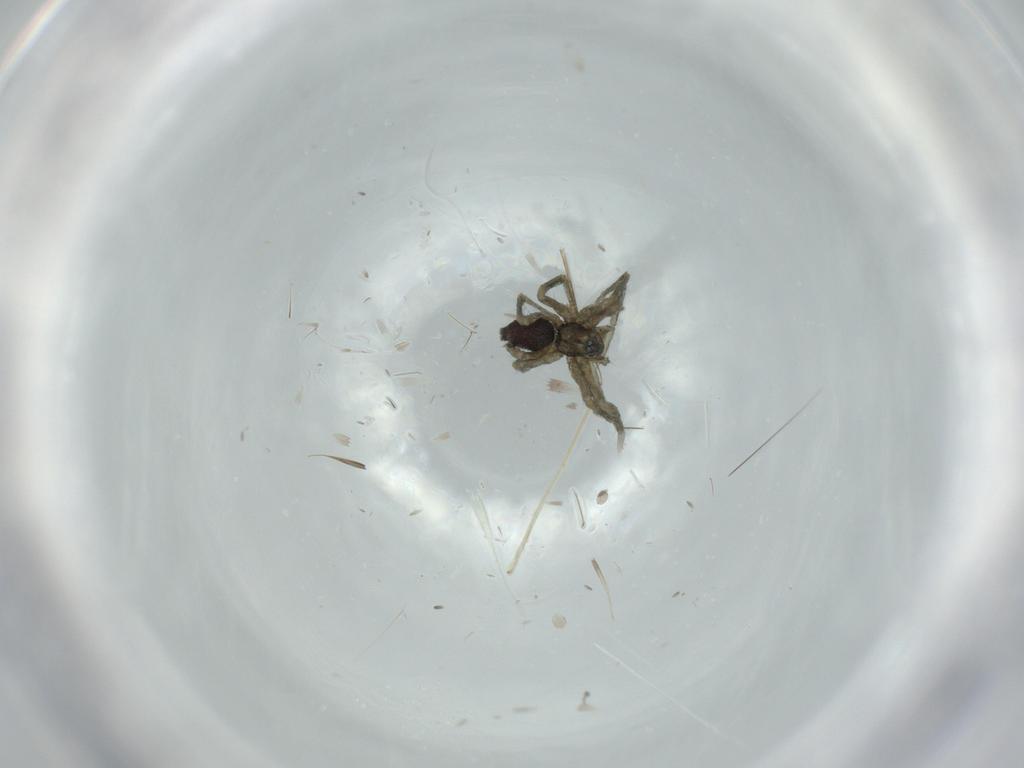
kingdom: Animalia
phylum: Arthropoda
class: Arachnida
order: Araneae
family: Linyphiidae
